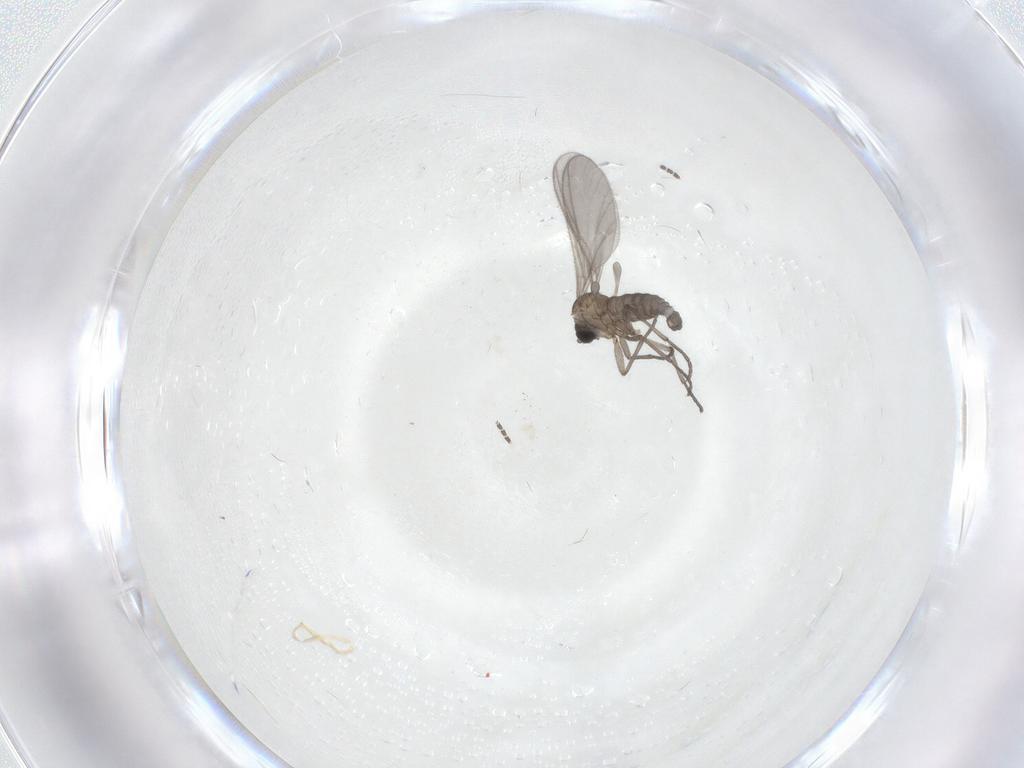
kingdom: Animalia
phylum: Arthropoda
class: Insecta
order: Diptera
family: Sciaridae
